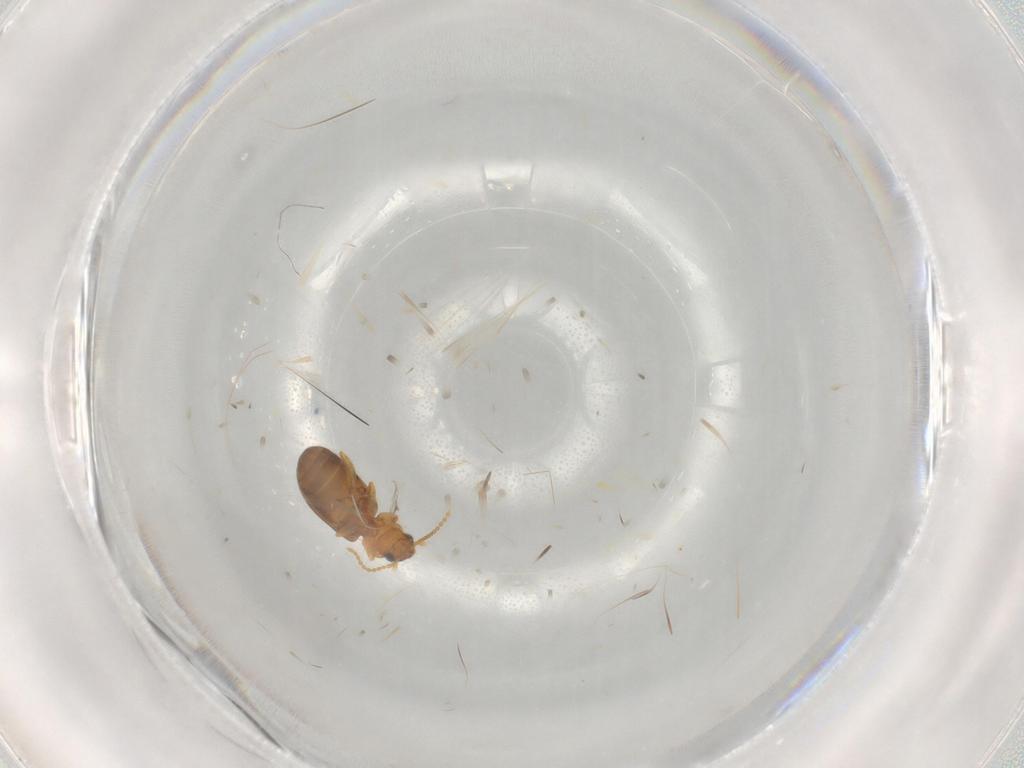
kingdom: Animalia
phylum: Arthropoda
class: Insecta
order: Coleoptera
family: Carabidae
